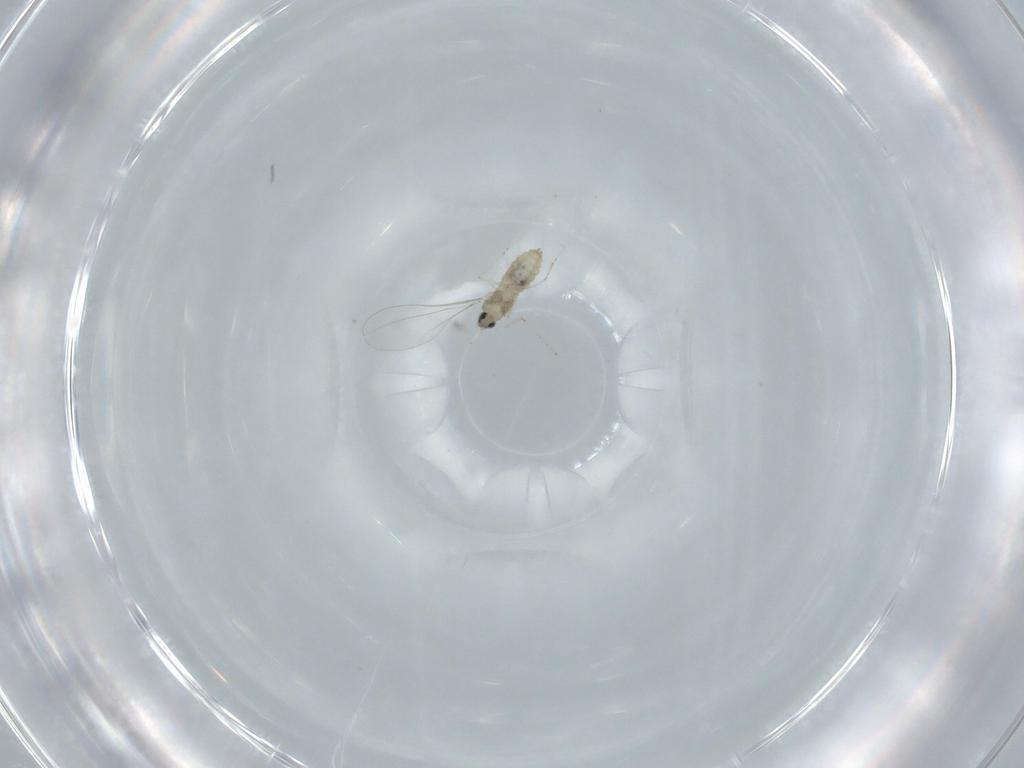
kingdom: Animalia
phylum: Arthropoda
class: Insecta
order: Diptera
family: Cecidomyiidae
